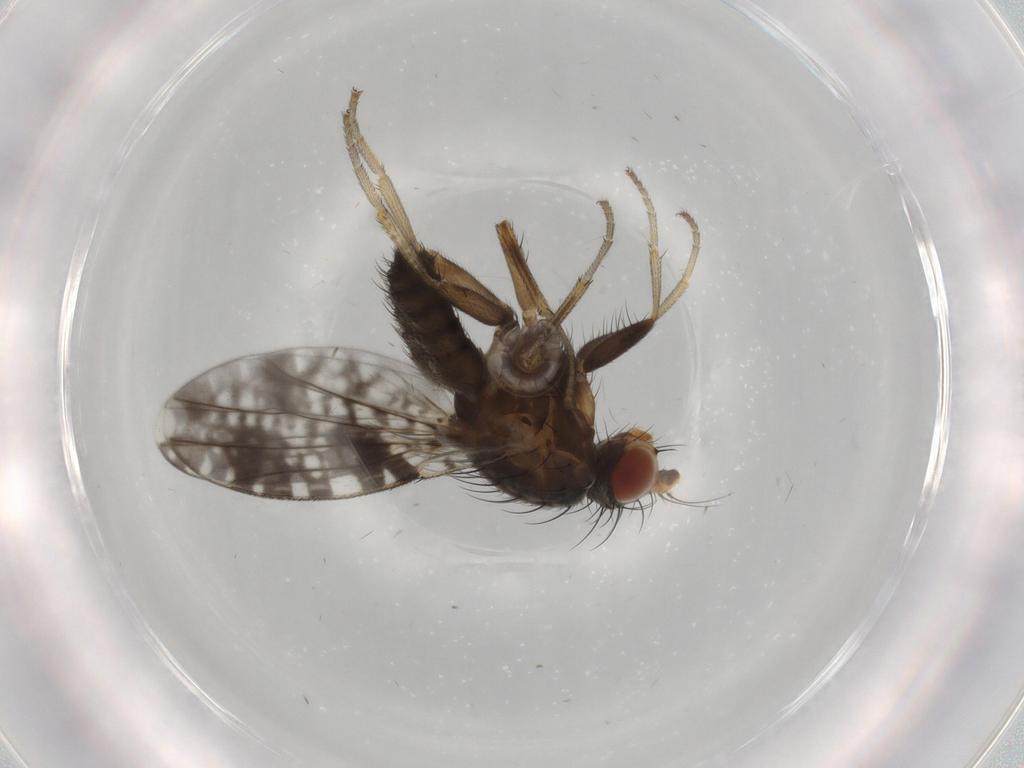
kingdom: Animalia
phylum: Arthropoda
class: Insecta
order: Diptera
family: Tephritidae
